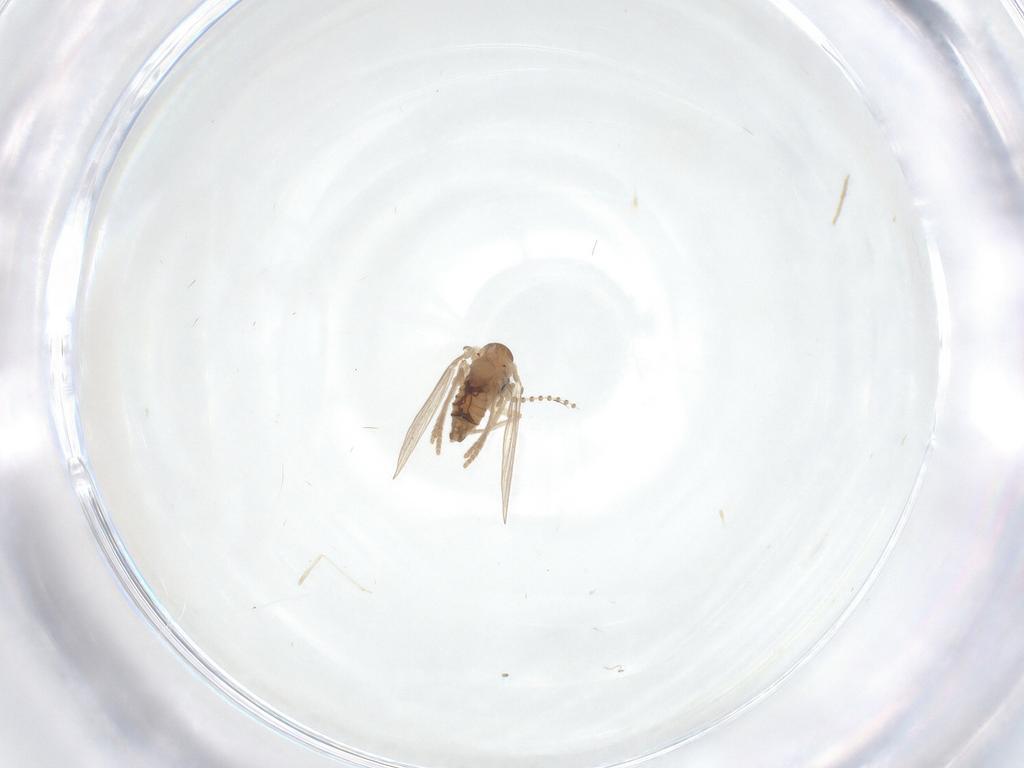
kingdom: Animalia
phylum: Arthropoda
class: Insecta
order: Diptera
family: Psychodidae
